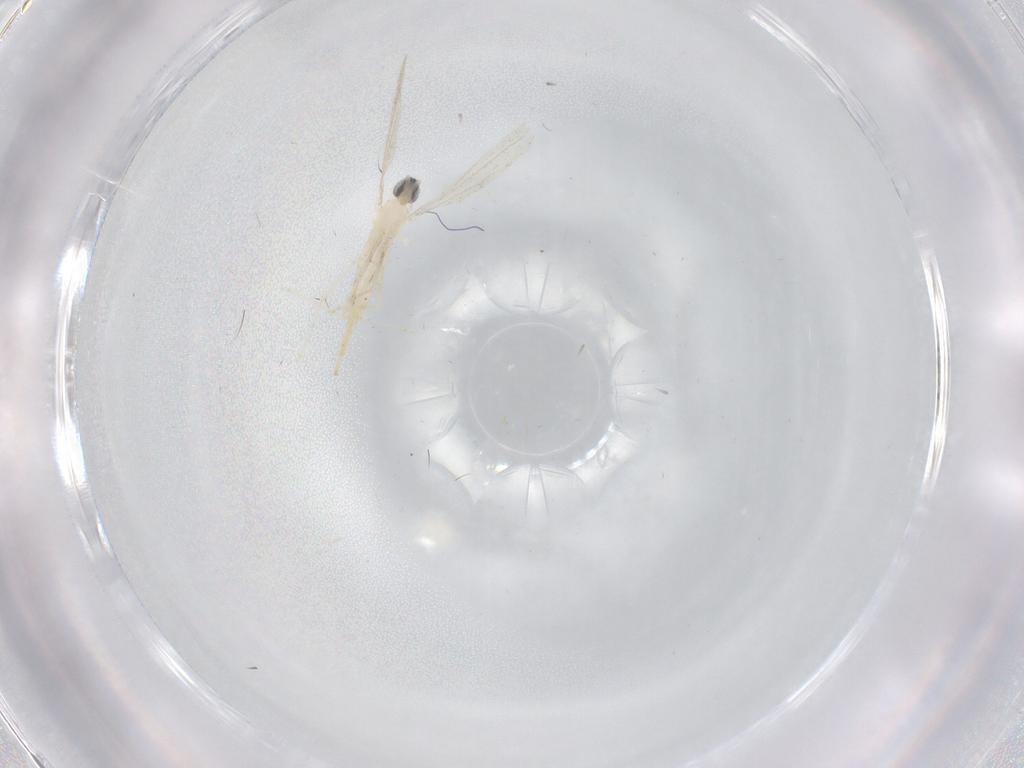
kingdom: Animalia
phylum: Arthropoda
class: Insecta
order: Diptera
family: Cecidomyiidae
